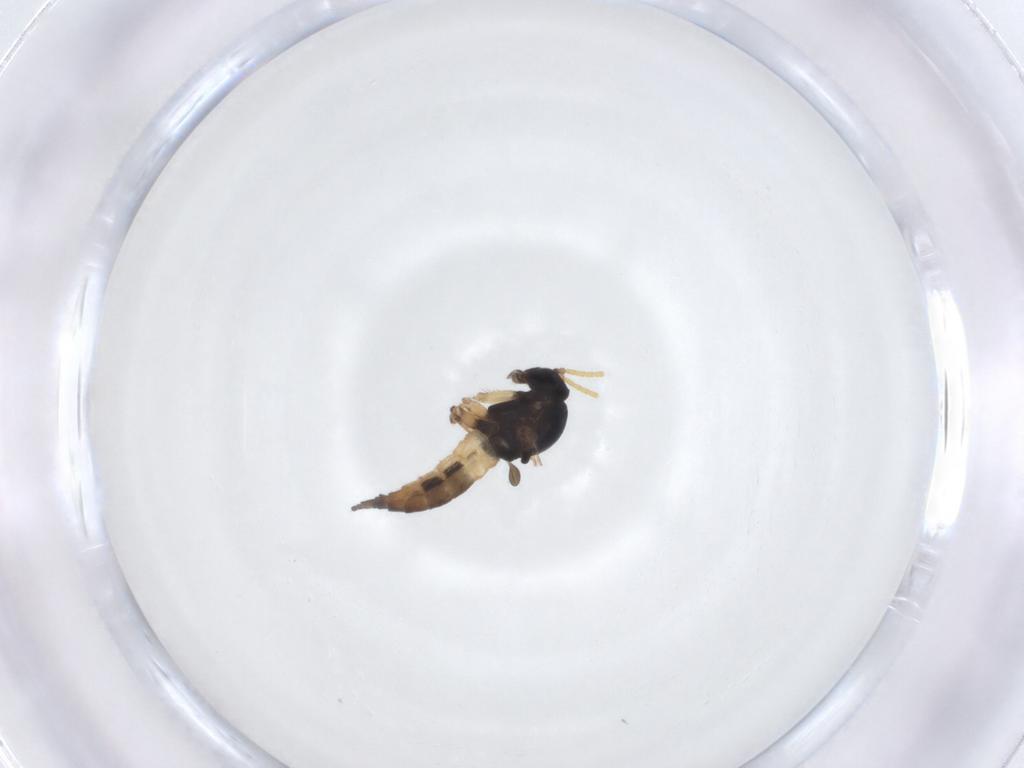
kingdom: Animalia
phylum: Arthropoda
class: Insecta
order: Diptera
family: Sciaridae
